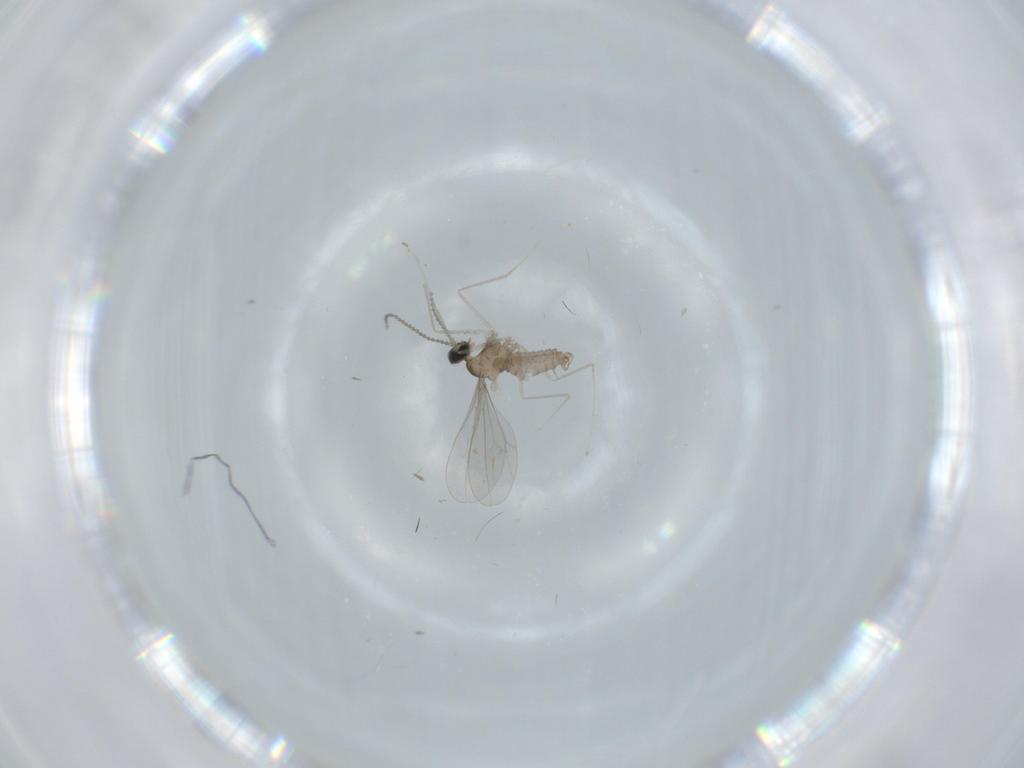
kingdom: Animalia
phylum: Arthropoda
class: Insecta
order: Diptera
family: Cecidomyiidae
